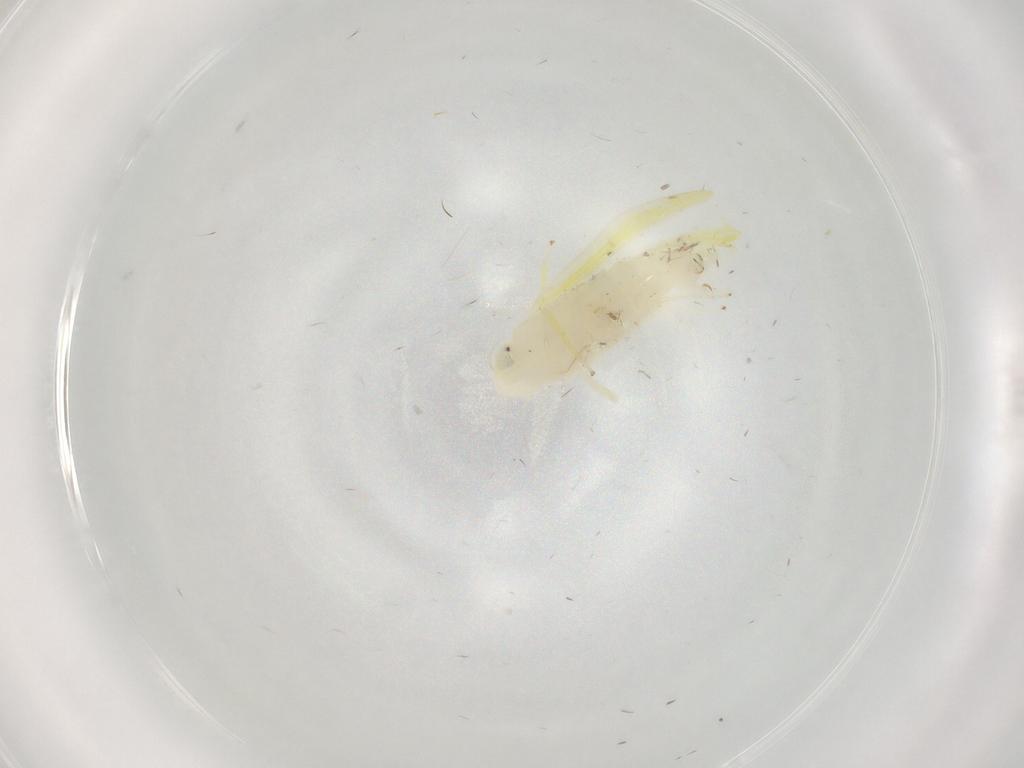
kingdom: Animalia
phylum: Arthropoda
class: Insecta
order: Hemiptera
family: Cicadellidae
